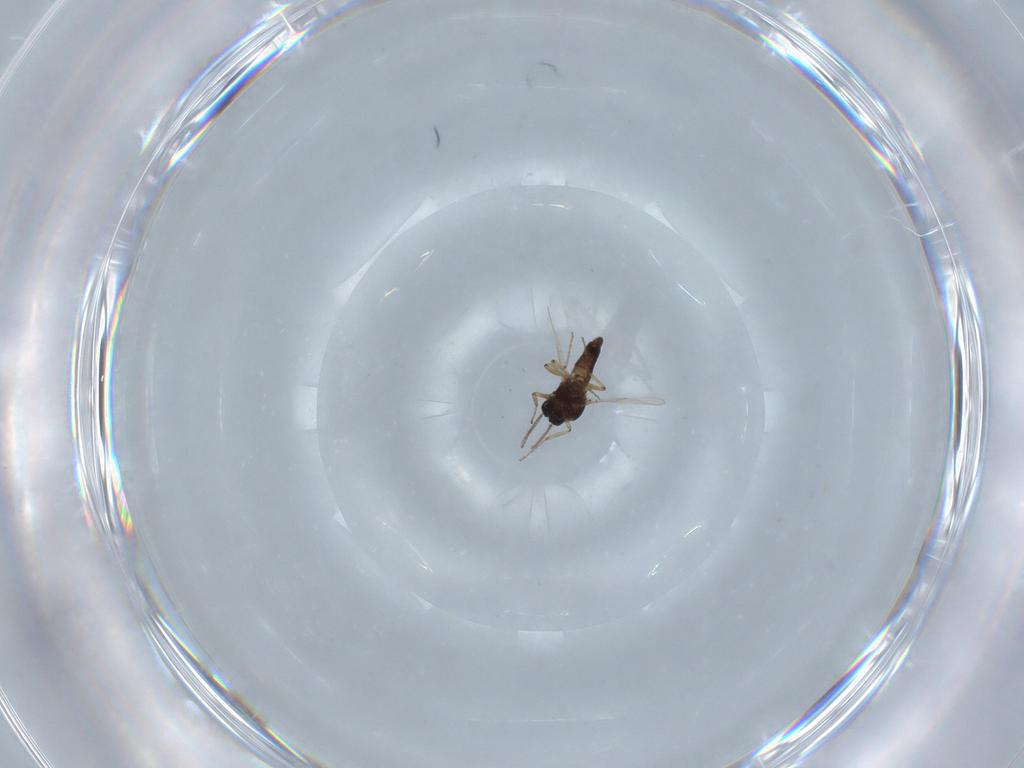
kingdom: Animalia
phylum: Arthropoda
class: Insecta
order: Diptera
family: Ceratopogonidae
